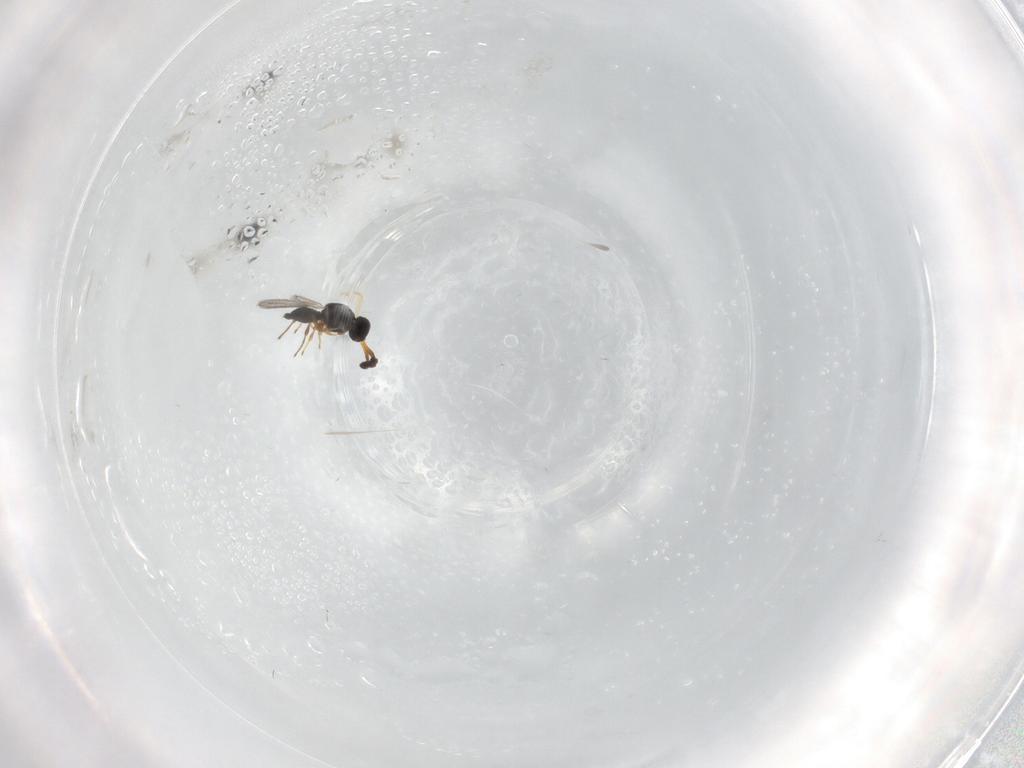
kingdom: Animalia
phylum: Arthropoda
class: Insecta
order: Hymenoptera
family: Platygastridae
